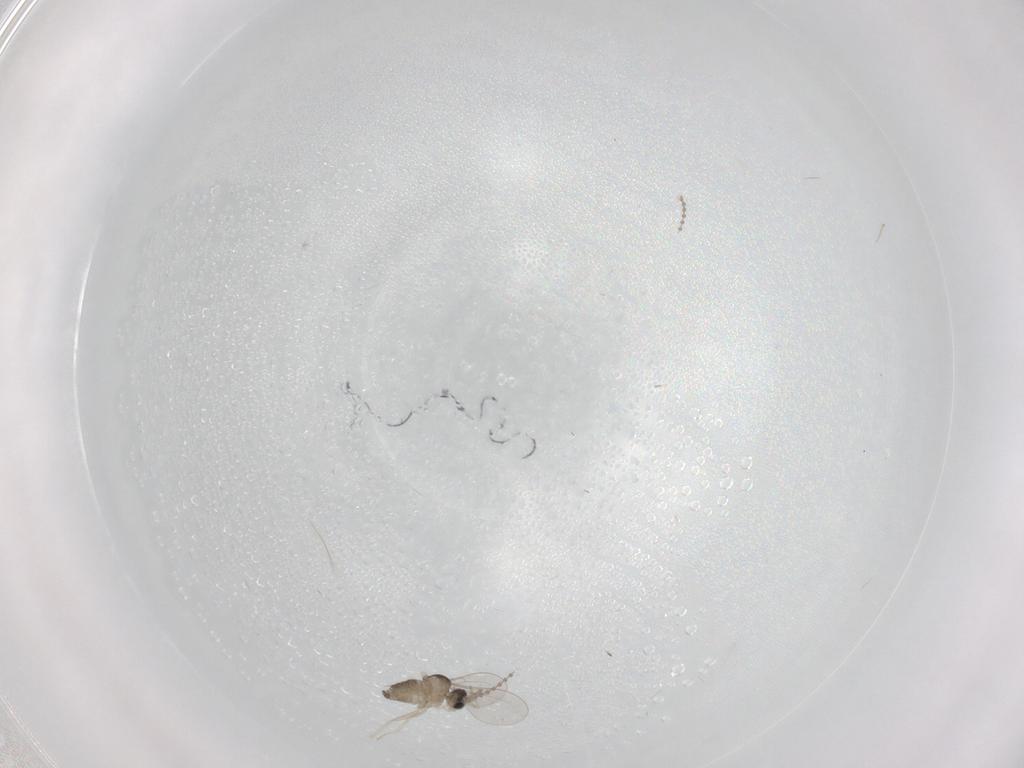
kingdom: Animalia
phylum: Arthropoda
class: Insecta
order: Diptera
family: Cecidomyiidae
